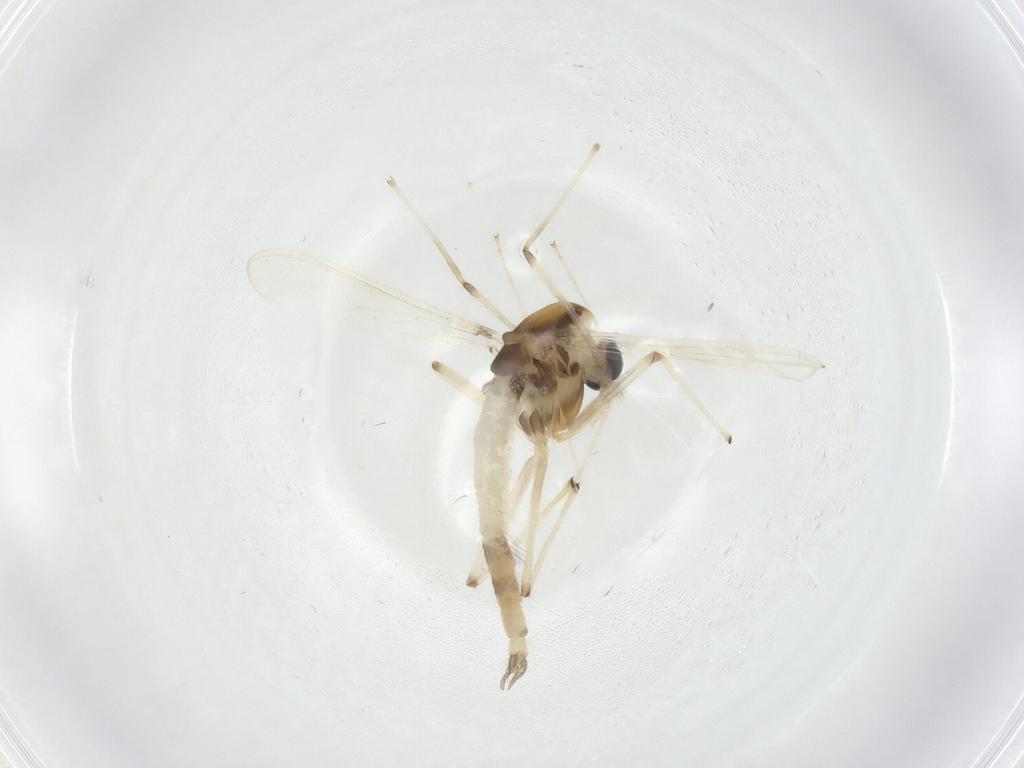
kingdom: Animalia
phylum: Arthropoda
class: Insecta
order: Diptera
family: Chironomidae
